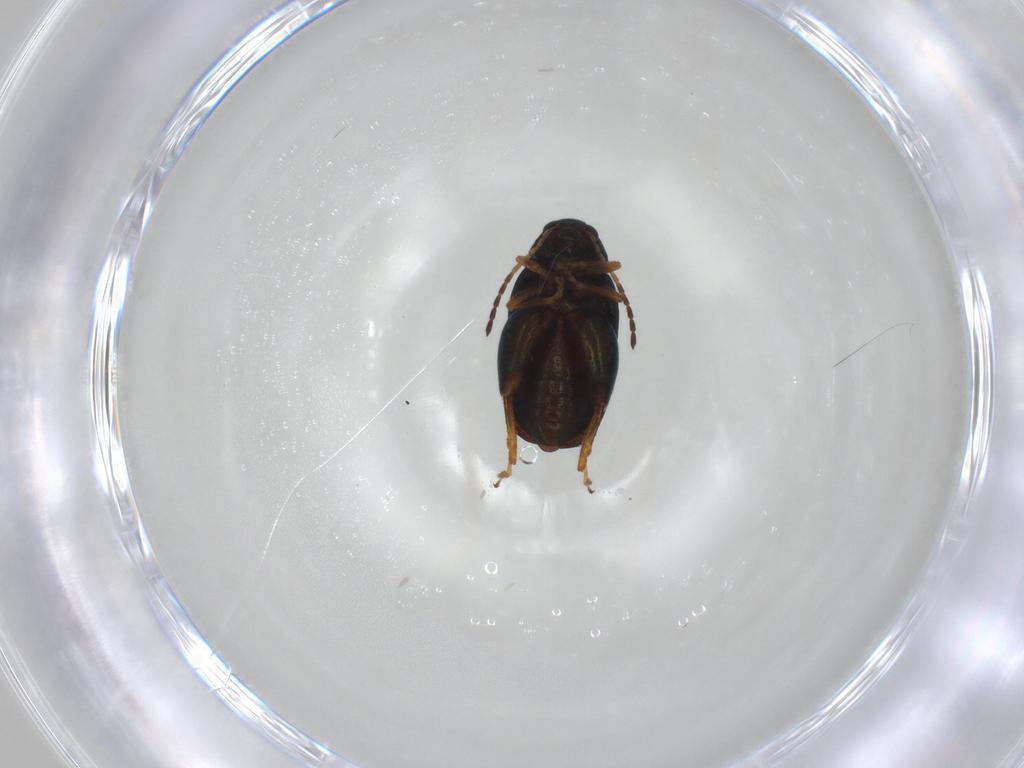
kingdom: Animalia
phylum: Arthropoda
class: Insecta
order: Coleoptera
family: Chrysomelidae
